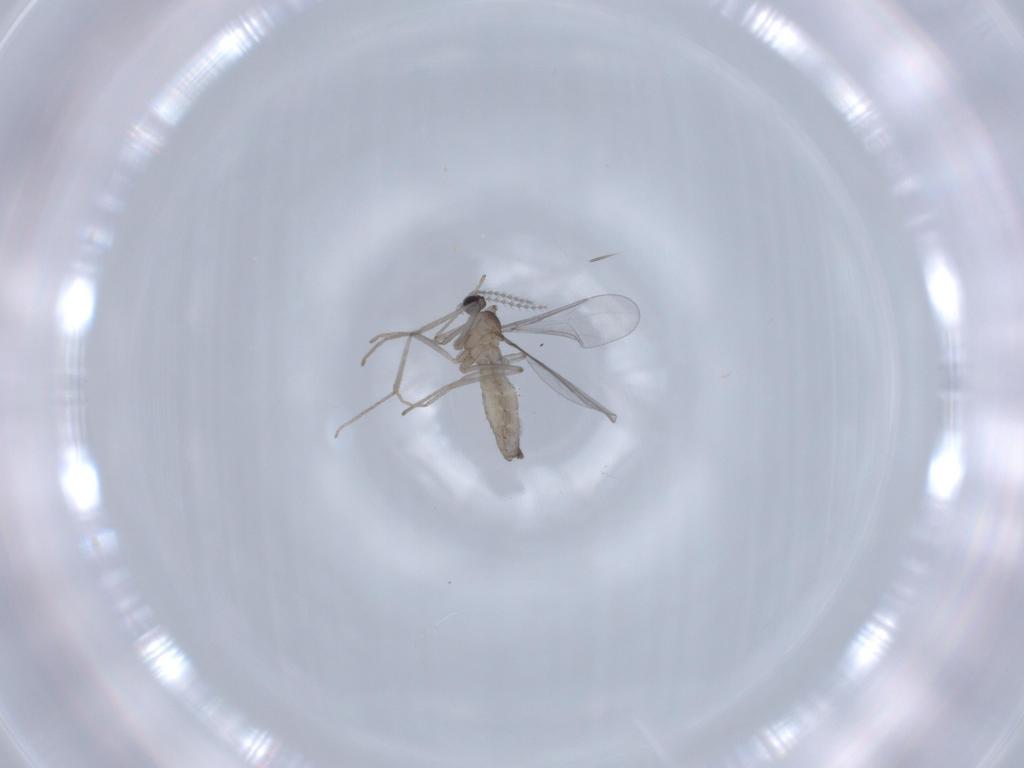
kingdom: Animalia
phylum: Arthropoda
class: Insecta
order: Diptera
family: Cecidomyiidae
